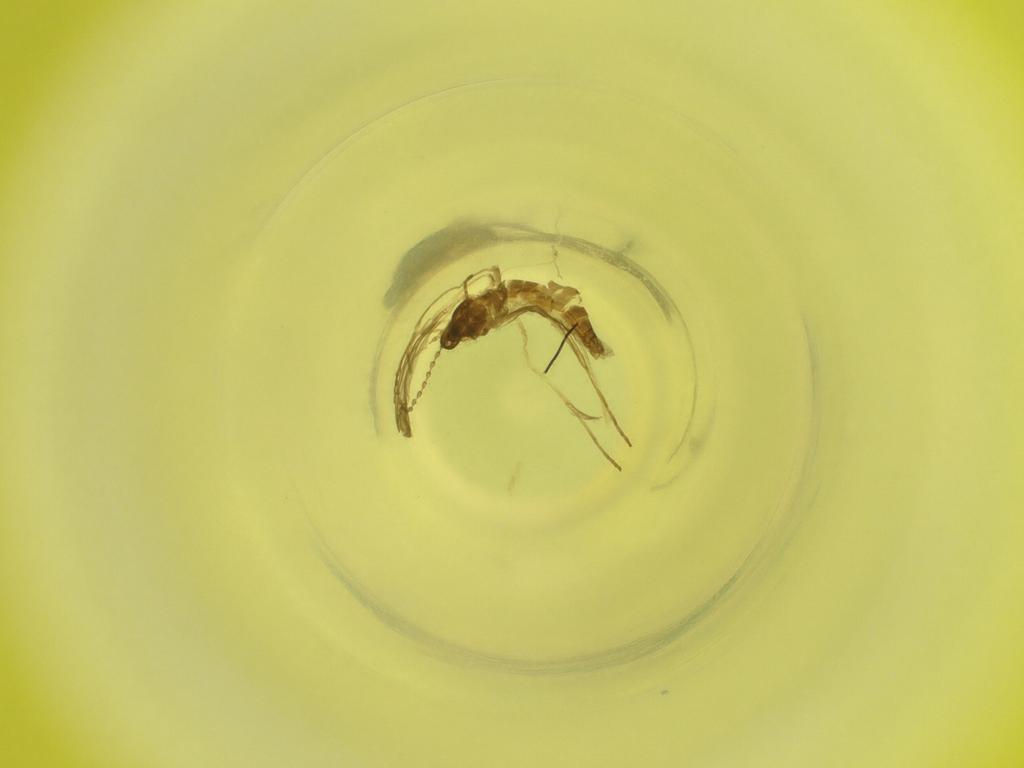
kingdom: Animalia
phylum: Arthropoda
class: Insecta
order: Diptera
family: Cecidomyiidae
